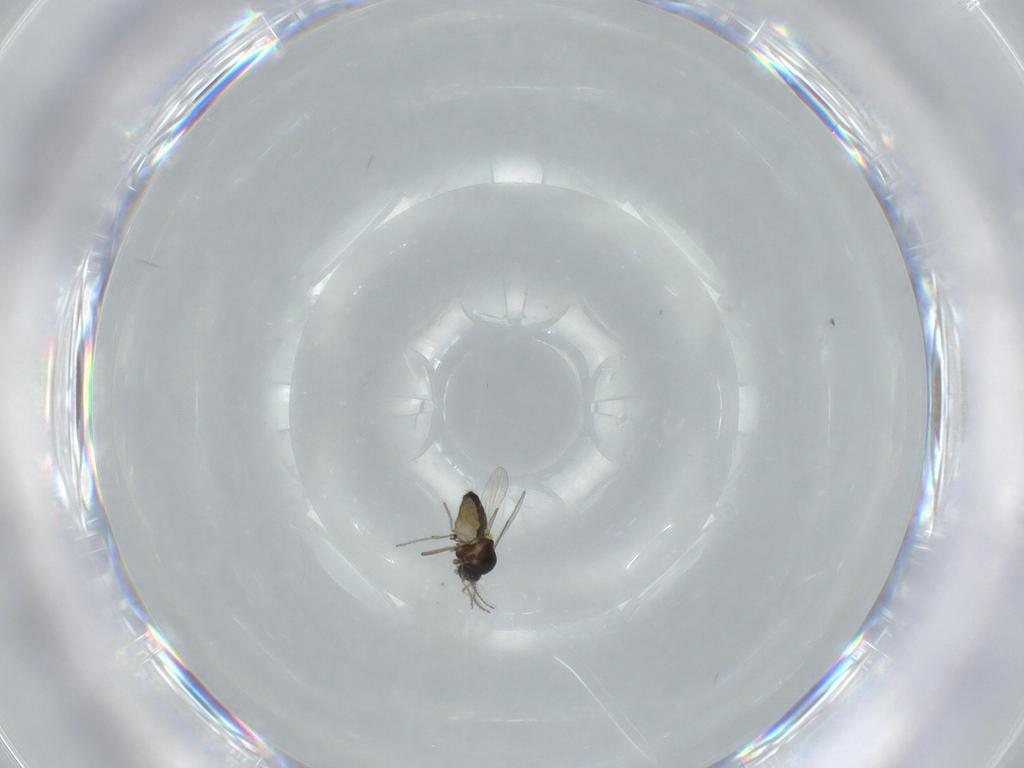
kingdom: Animalia
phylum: Arthropoda
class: Insecta
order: Diptera
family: Ceratopogonidae
